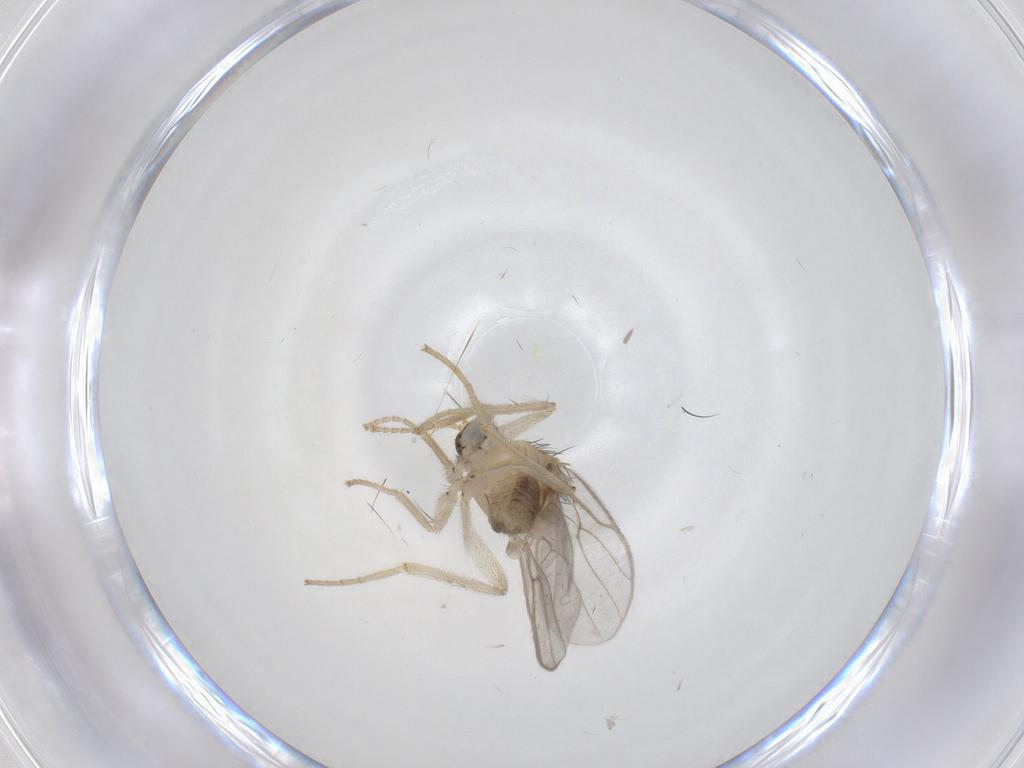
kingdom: Animalia
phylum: Arthropoda
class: Insecta
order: Diptera
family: Hybotidae
